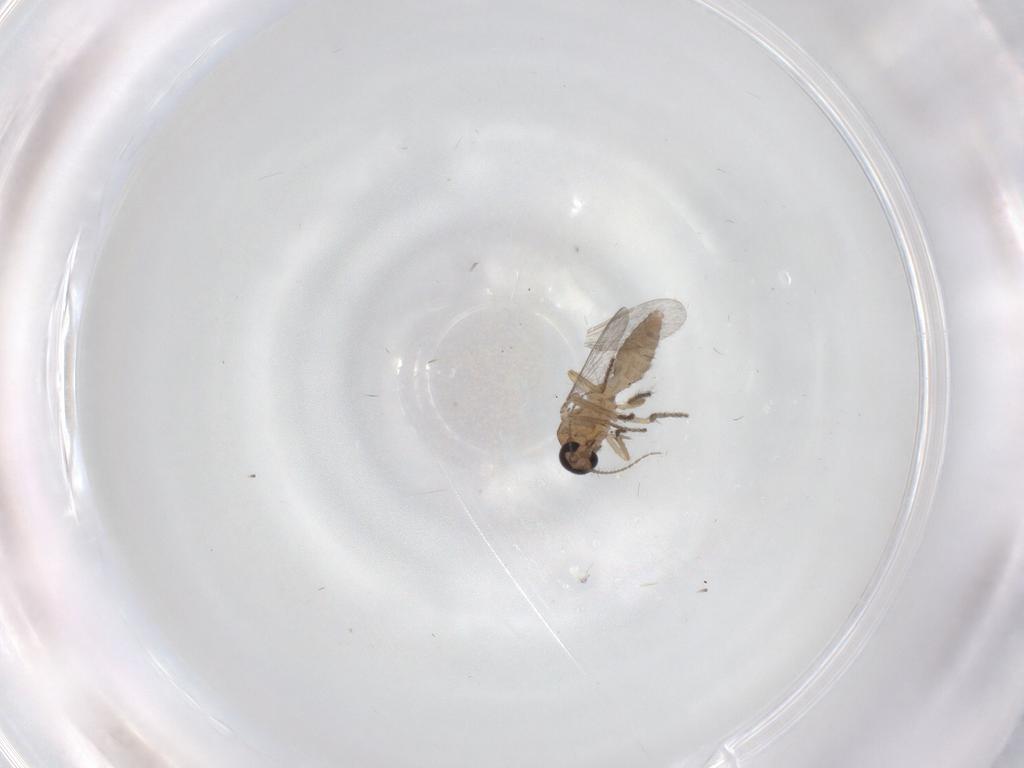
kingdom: Animalia
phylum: Arthropoda
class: Insecta
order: Diptera
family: Ceratopogonidae
